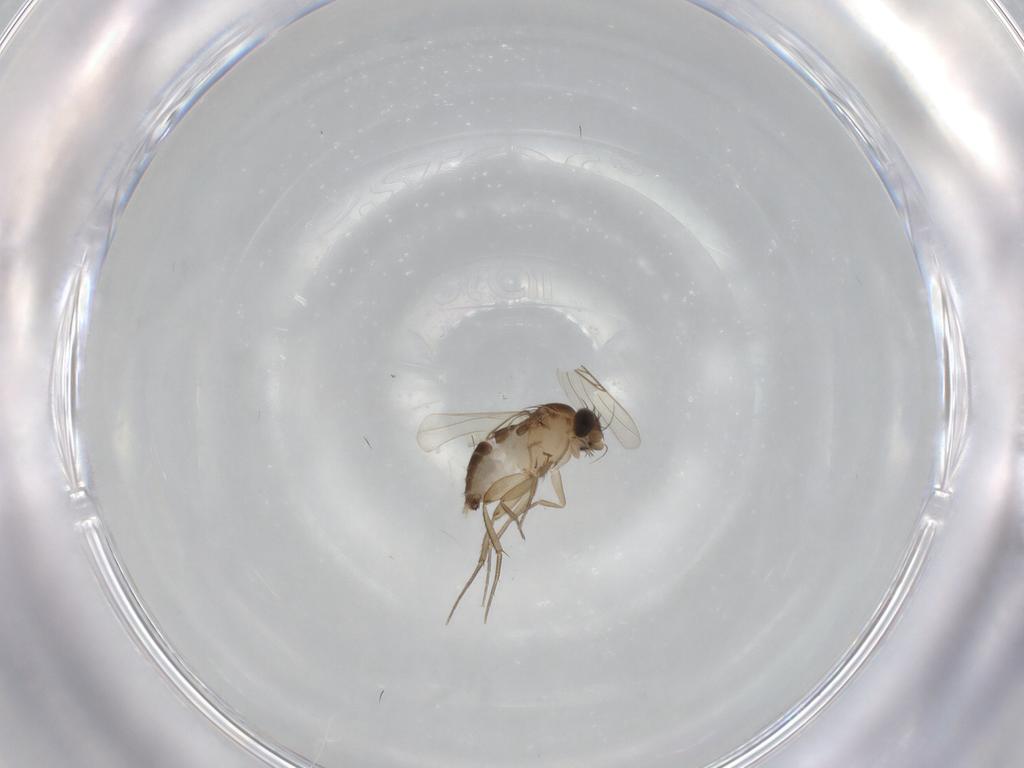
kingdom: Animalia
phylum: Arthropoda
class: Insecta
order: Diptera
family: Phoridae
